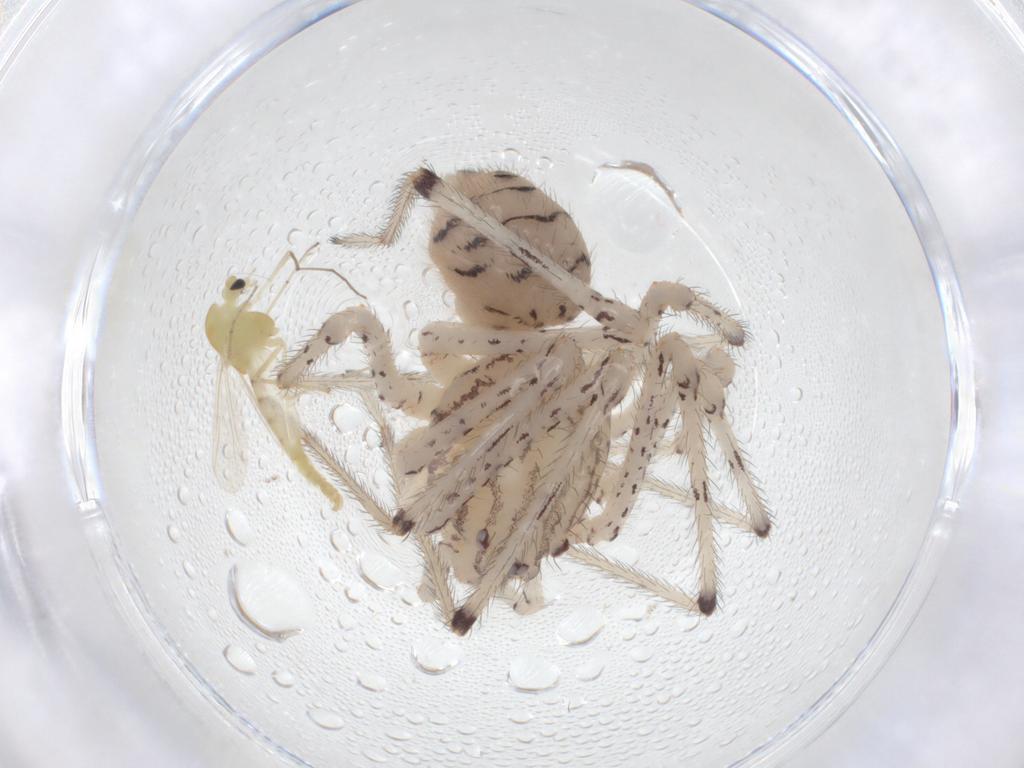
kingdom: Animalia
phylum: Arthropoda
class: Insecta
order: Diptera
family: Chironomidae
